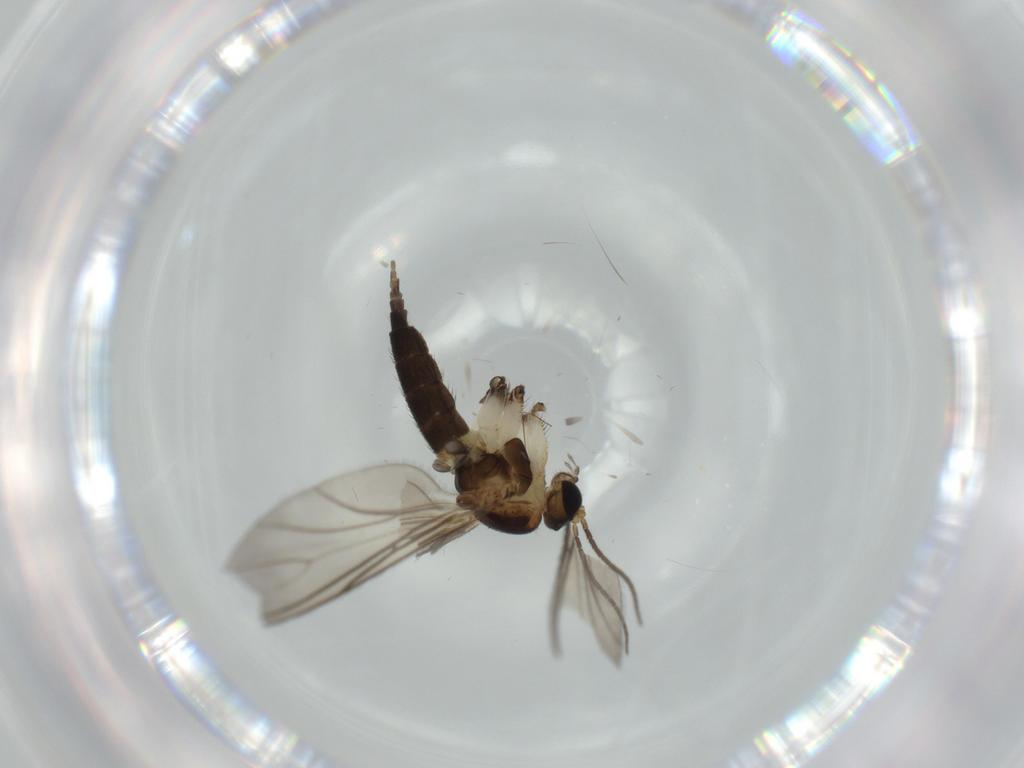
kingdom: Animalia
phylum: Arthropoda
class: Insecta
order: Diptera
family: Sciaridae
